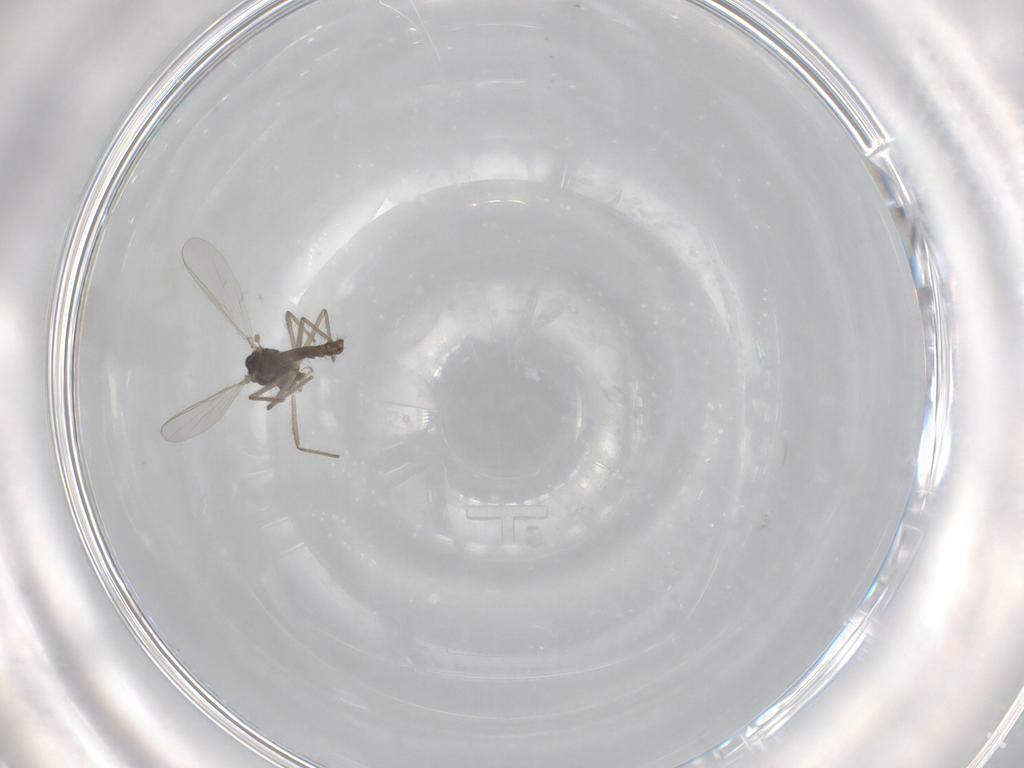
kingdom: Animalia
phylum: Arthropoda
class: Insecta
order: Diptera
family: Chironomidae
